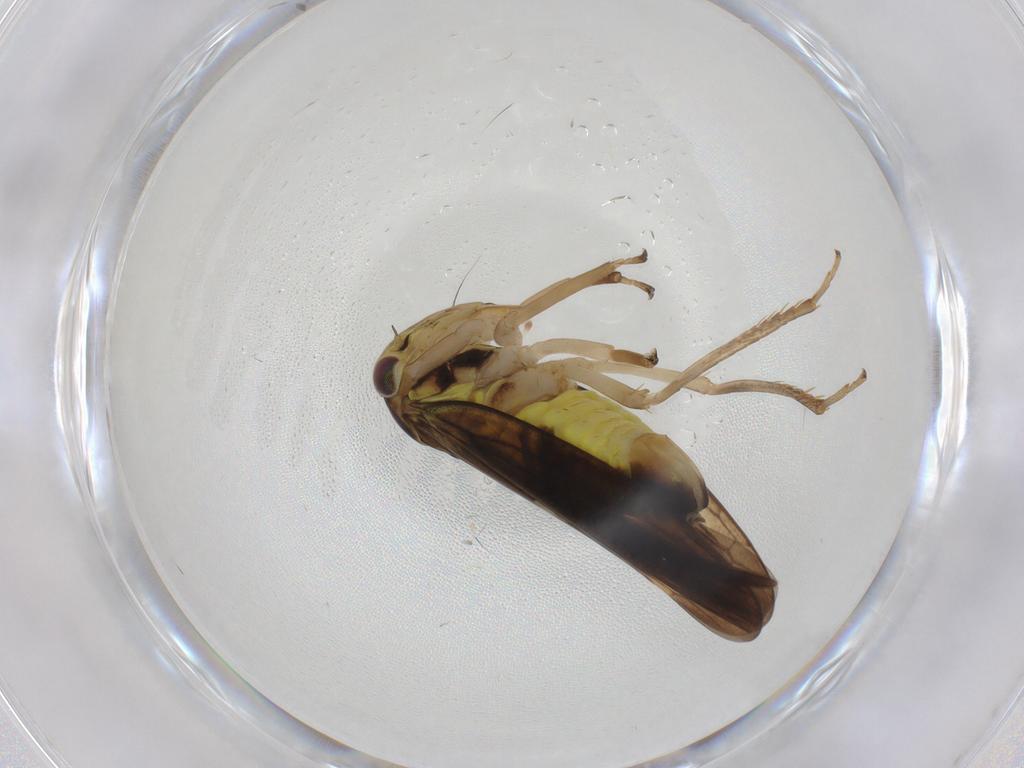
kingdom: Animalia
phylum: Arthropoda
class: Insecta
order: Hemiptera
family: Cicadellidae
